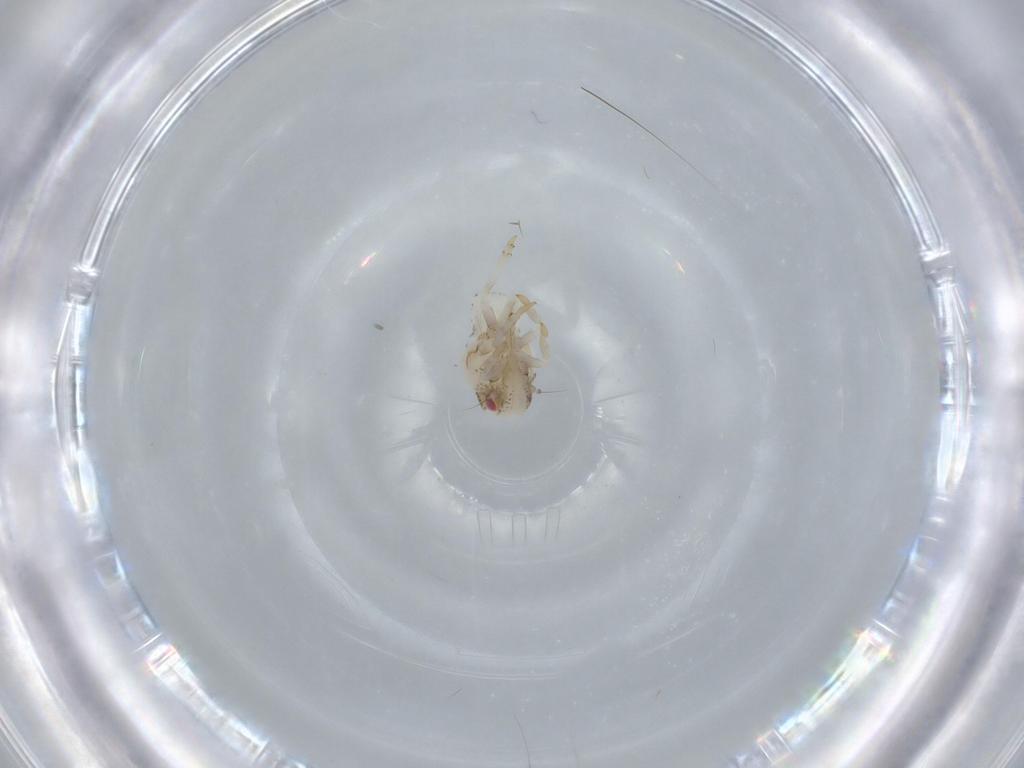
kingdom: Animalia
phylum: Arthropoda
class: Insecta
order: Hemiptera
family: Acanaloniidae
